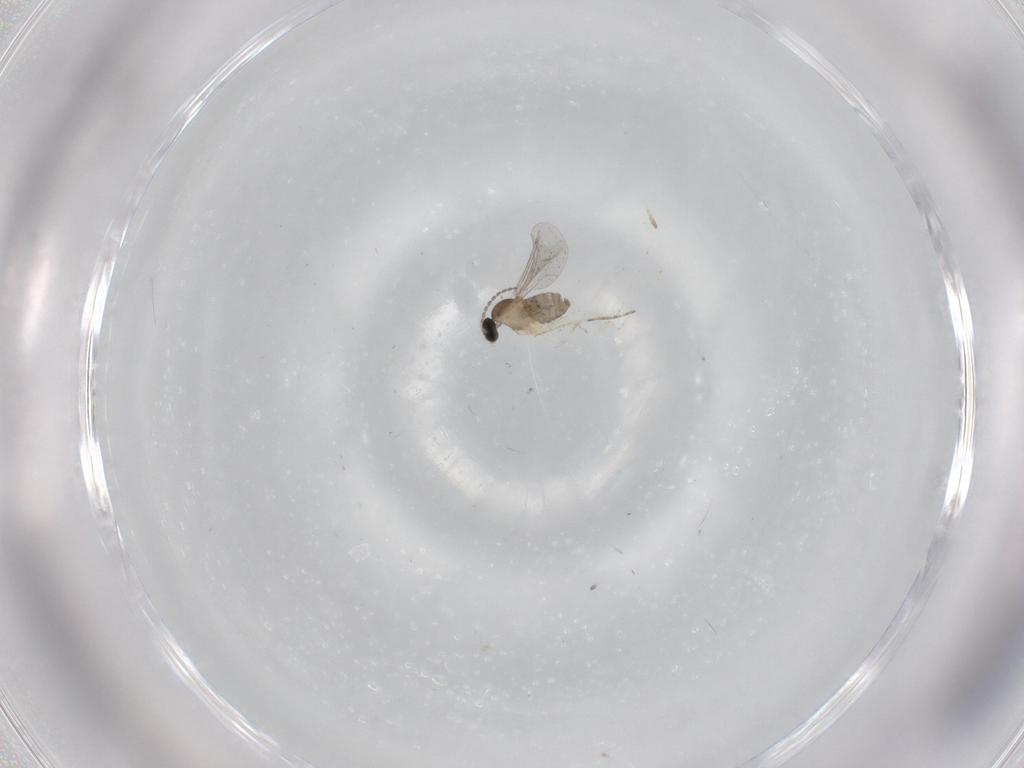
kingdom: Animalia
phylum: Arthropoda
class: Insecta
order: Diptera
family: Cecidomyiidae
